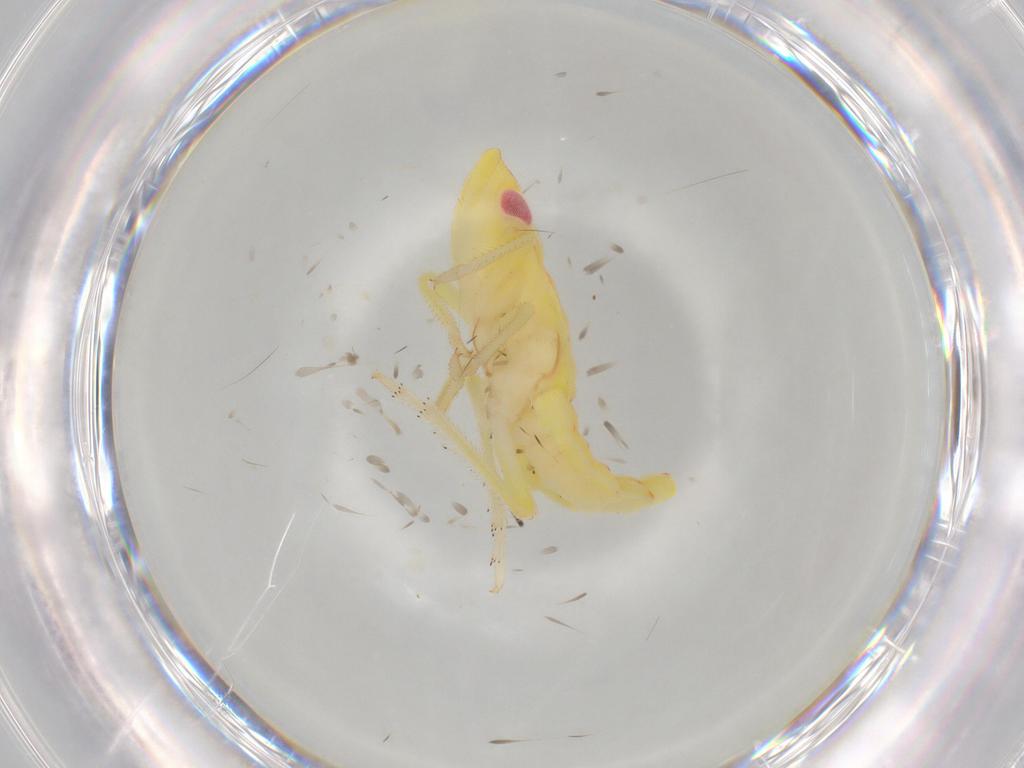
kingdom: Animalia
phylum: Arthropoda
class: Insecta
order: Hemiptera
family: Tropiduchidae
